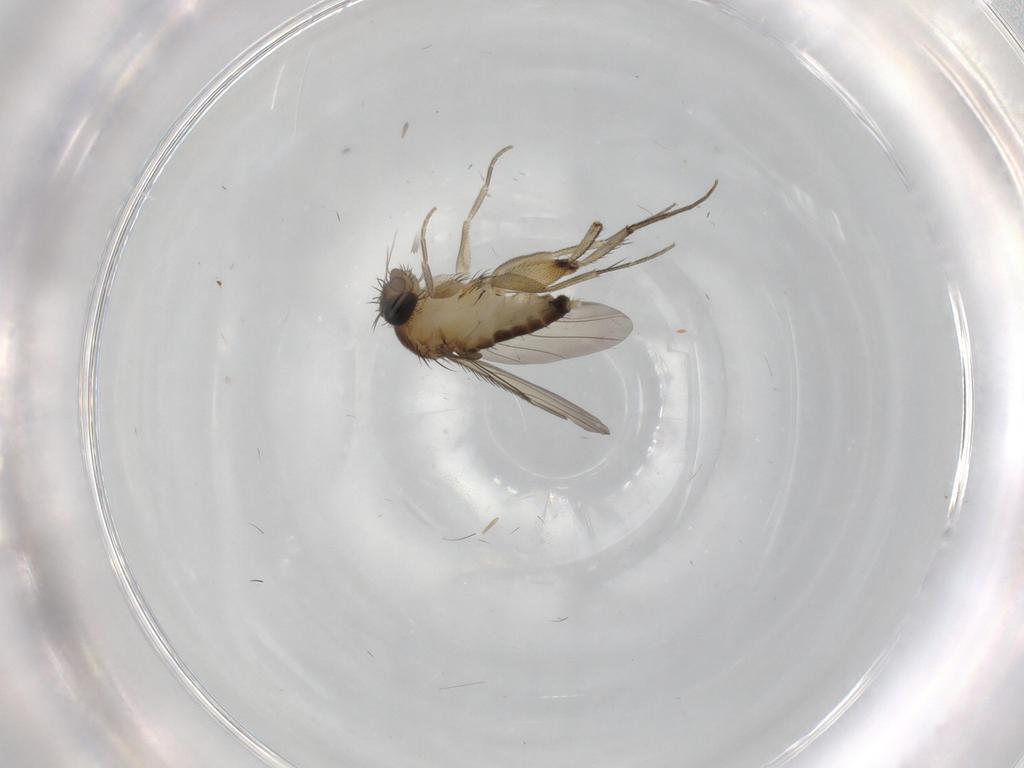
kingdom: Animalia
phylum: Arthropoda
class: Insecta
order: Diptera
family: Phoridae
